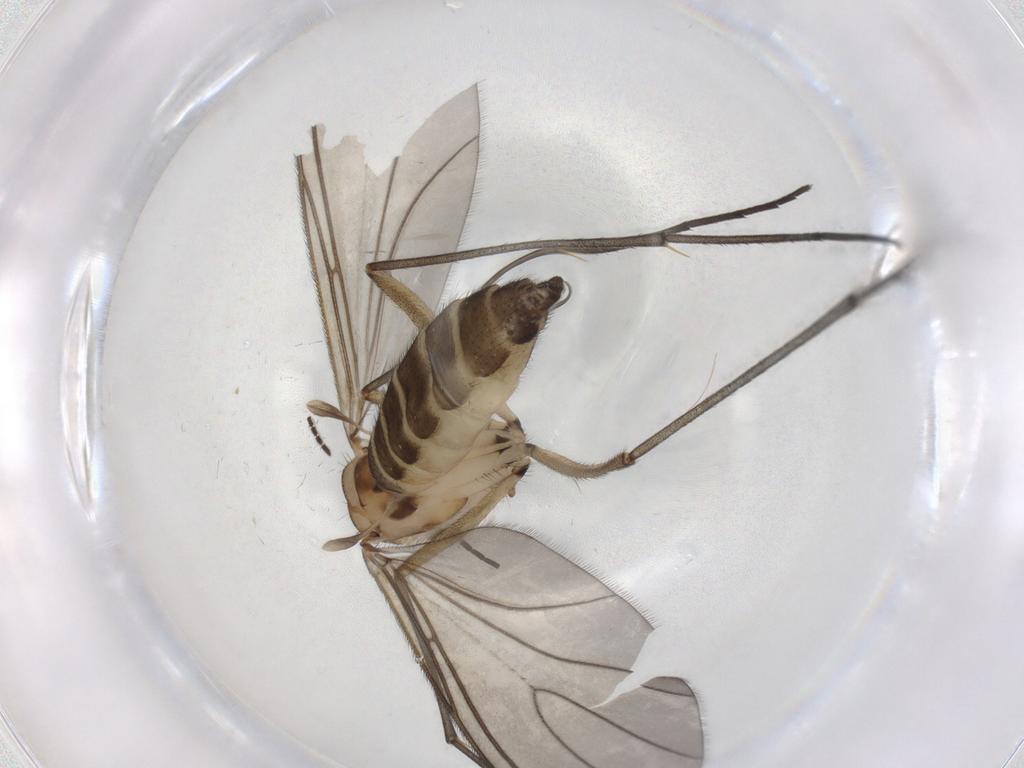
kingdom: Animalia
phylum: Arthropoda
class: Insecta
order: Diptera
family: Sciaridae
